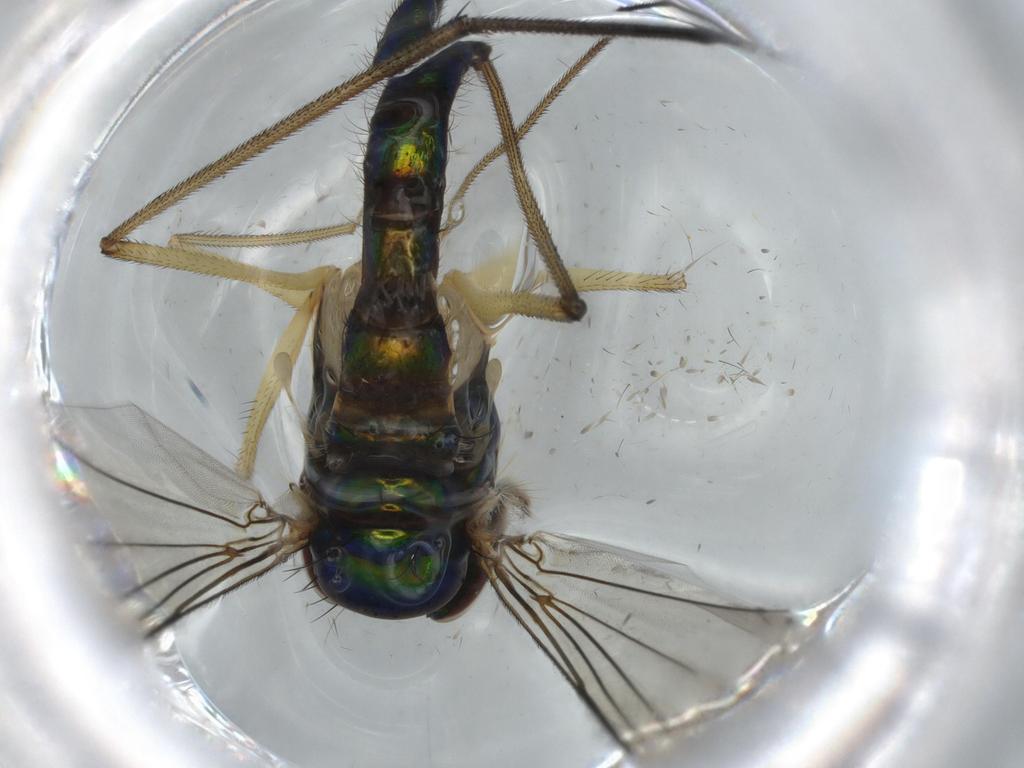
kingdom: Animalia
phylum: Arthropoda
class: Insecta
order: Diptera
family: Dolichopodidae
